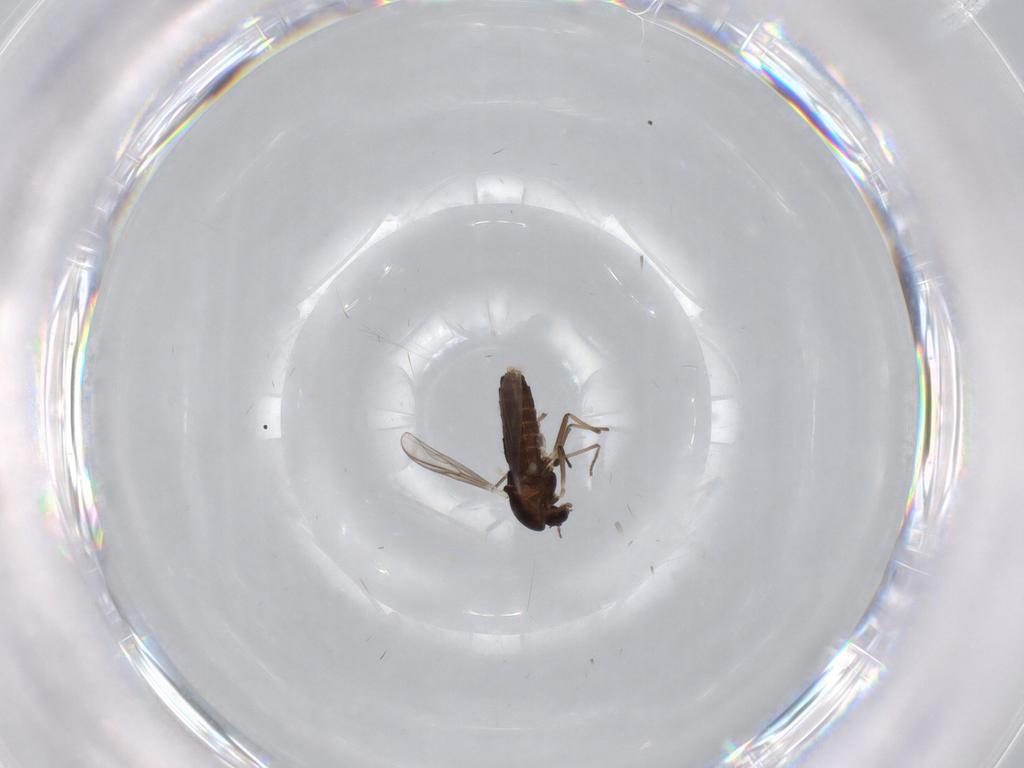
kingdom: Animalia
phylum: Arthropoda
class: Insecta
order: Diptera
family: Chironomidae
